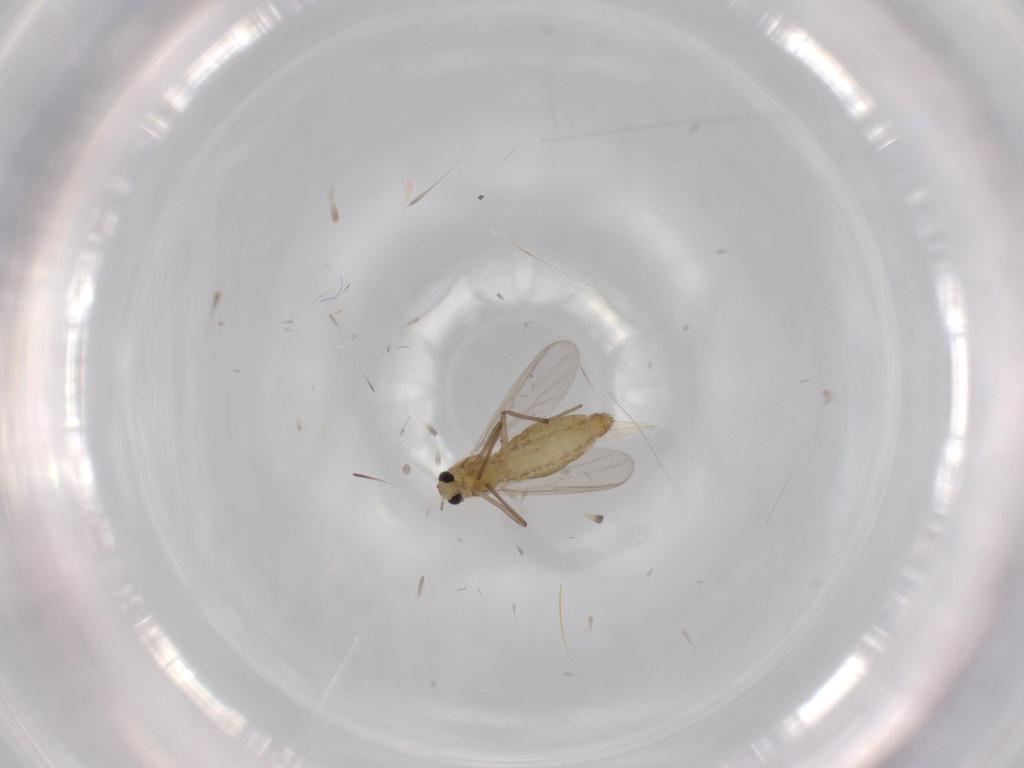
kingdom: Animalia
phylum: Arthropoda
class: Insecta
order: Diptera
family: Chironomidae
